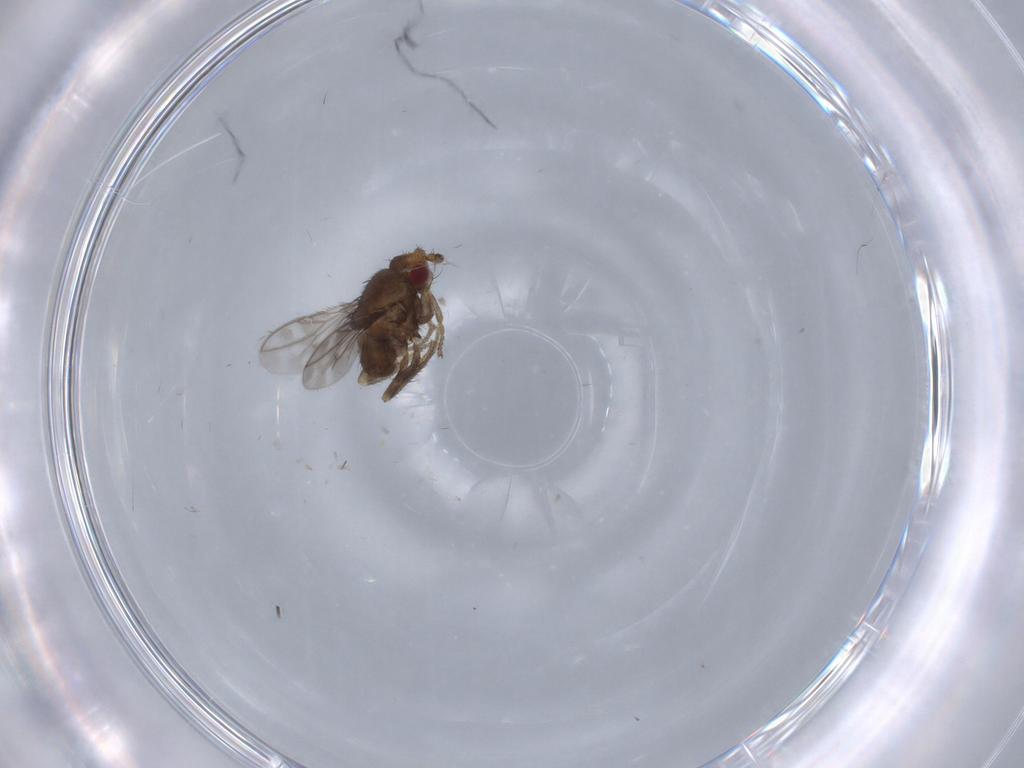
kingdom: Animalia
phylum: Arthropoda
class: Insecta
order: Diptera
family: Sphaeroceridae
